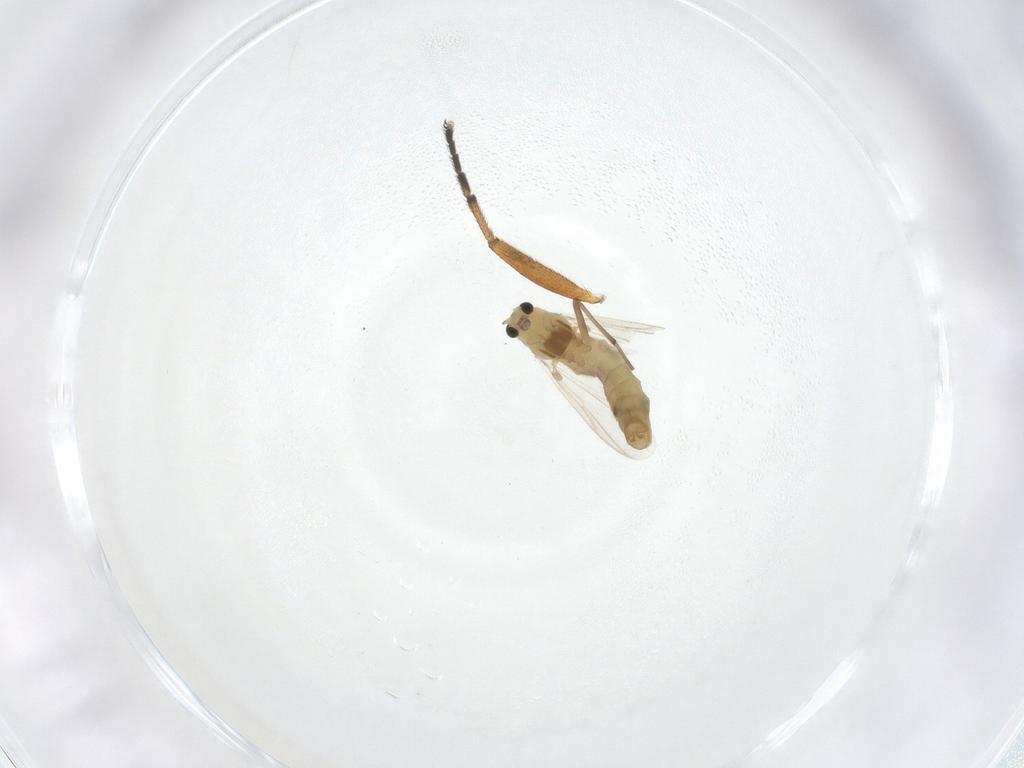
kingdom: Animalia
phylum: Arthropoda
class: Insecta
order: Diptera
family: Chironomidae
